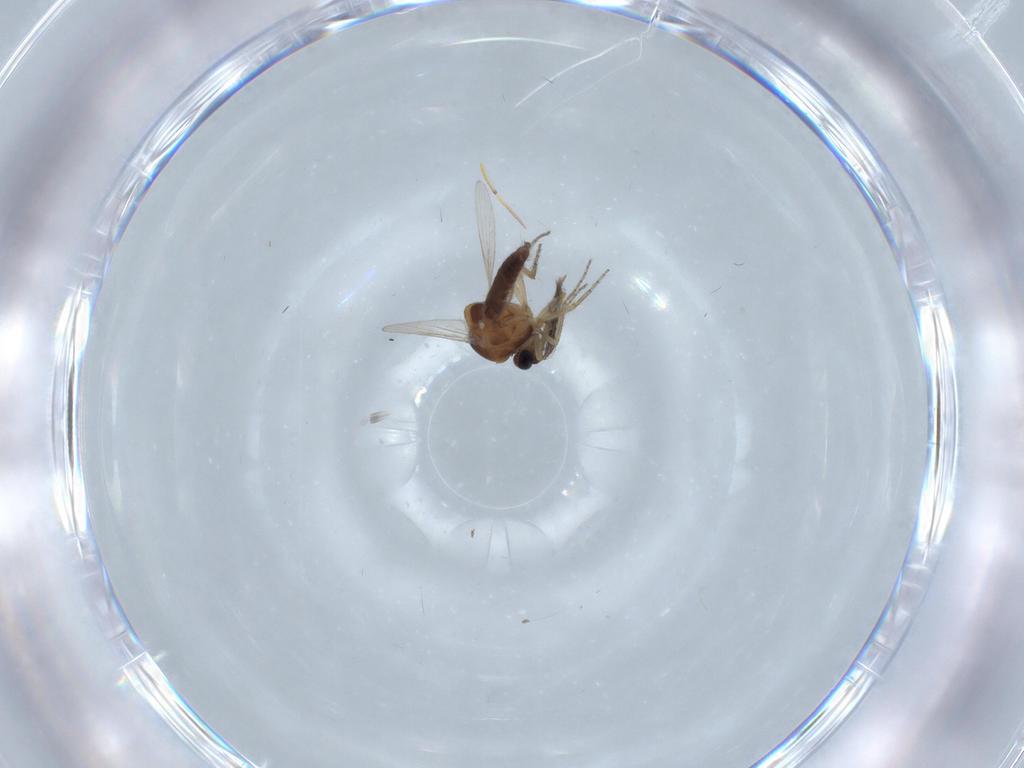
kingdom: Animalia
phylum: Arthropoda
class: Insecta
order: Diptera
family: Ceratopogonidae
